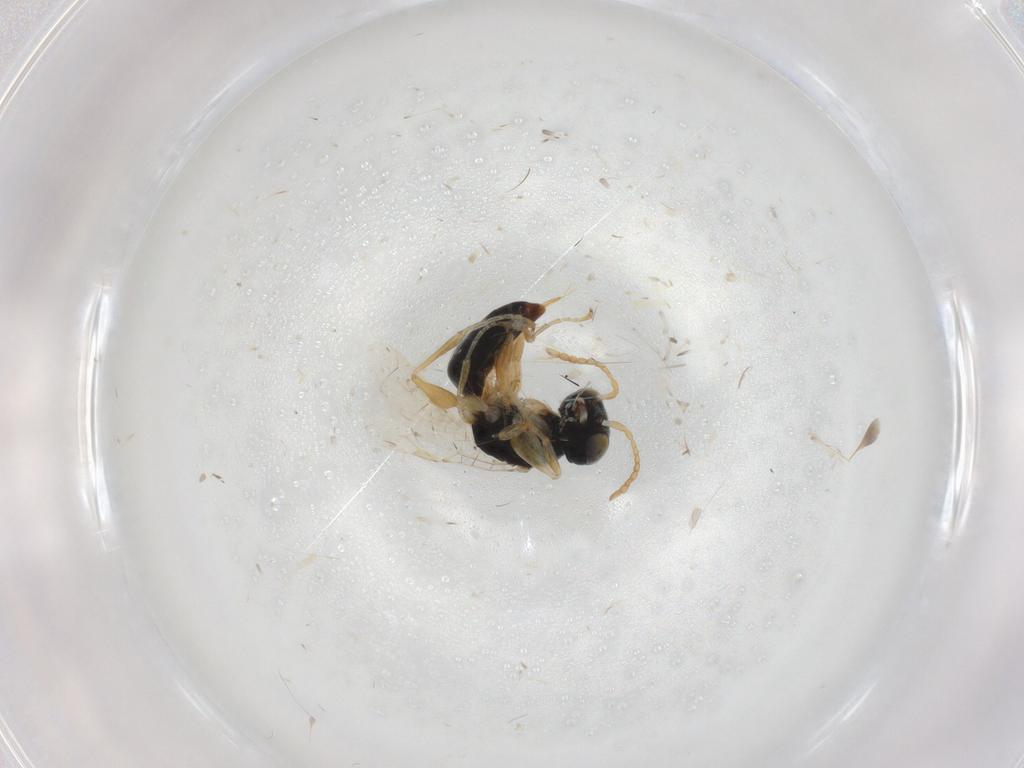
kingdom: Animalia
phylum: Arthropoda
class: Insecta
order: Hymenoptera
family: Dryinidae
